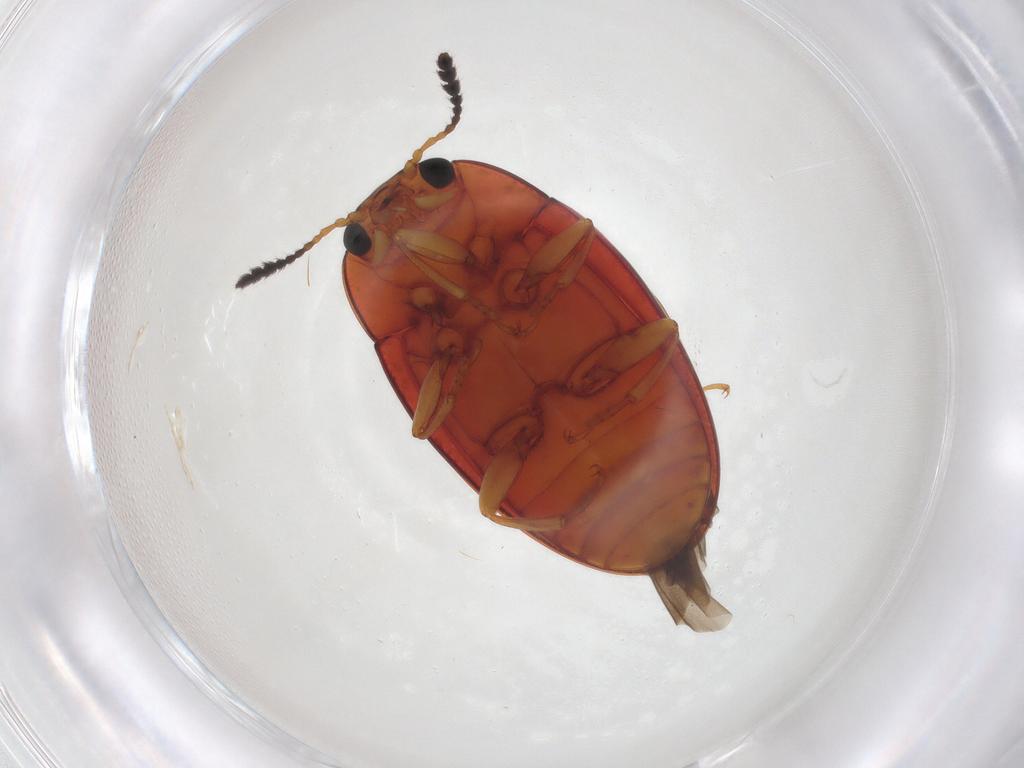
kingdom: Animalia
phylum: Arthropoda
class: Insecta
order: Coleoptera
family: Erotylidae
